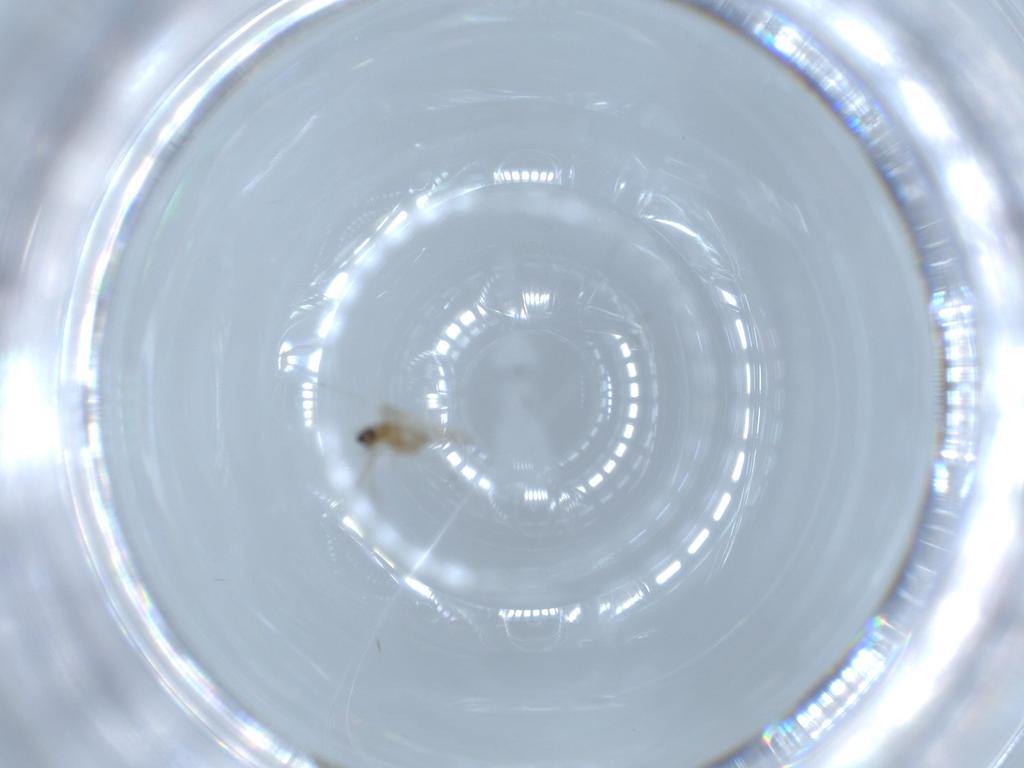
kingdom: Animalia
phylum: Arthropoda
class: Insecta
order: Diptera
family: Cecidomyiidae
